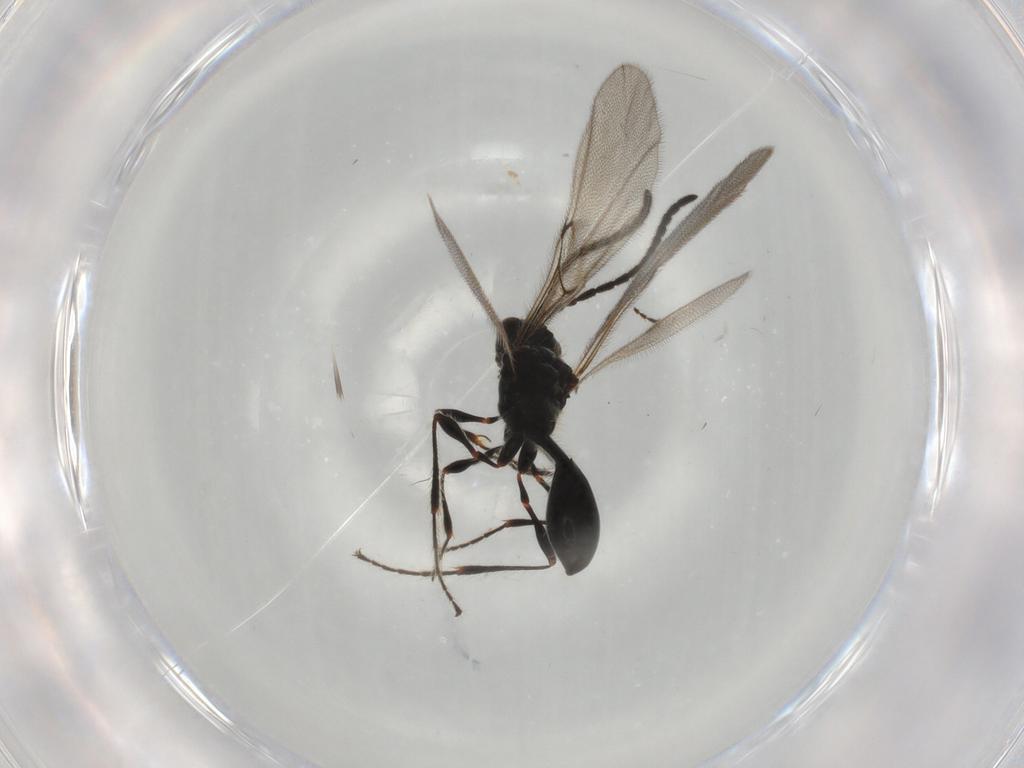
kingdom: Animalia
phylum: Arthropoda
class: Insecta
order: Hymenoptera
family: Diapriidae
